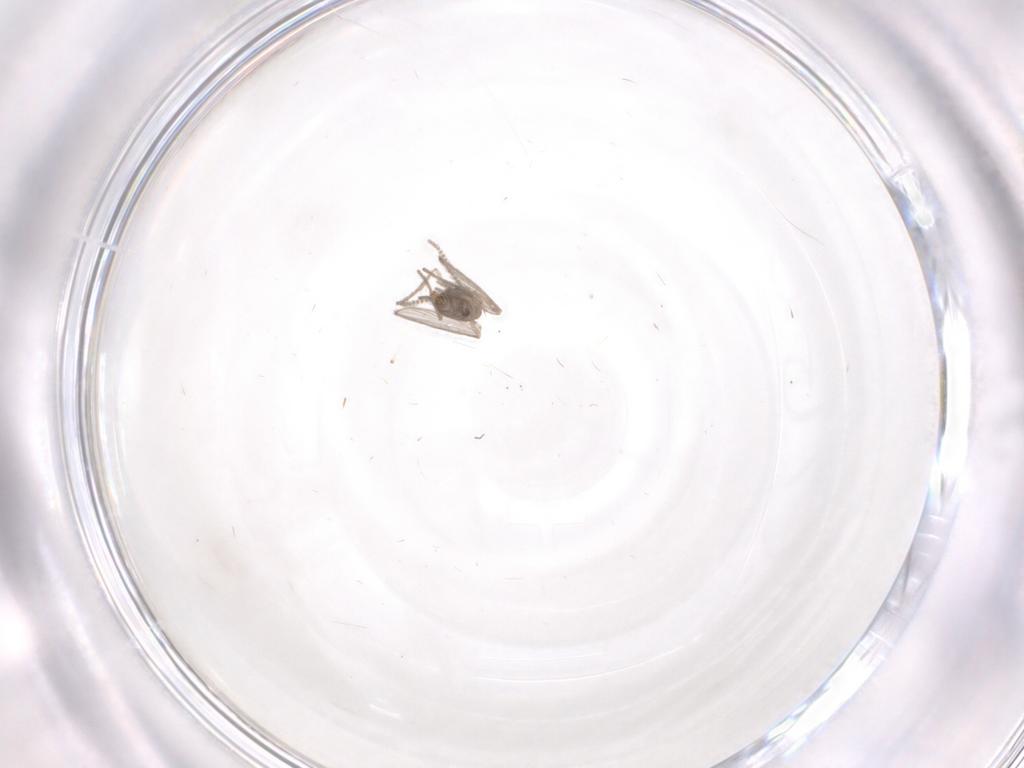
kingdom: Animalia
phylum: Arthropoda
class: Insecta
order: Diptera
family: Psychodidae
